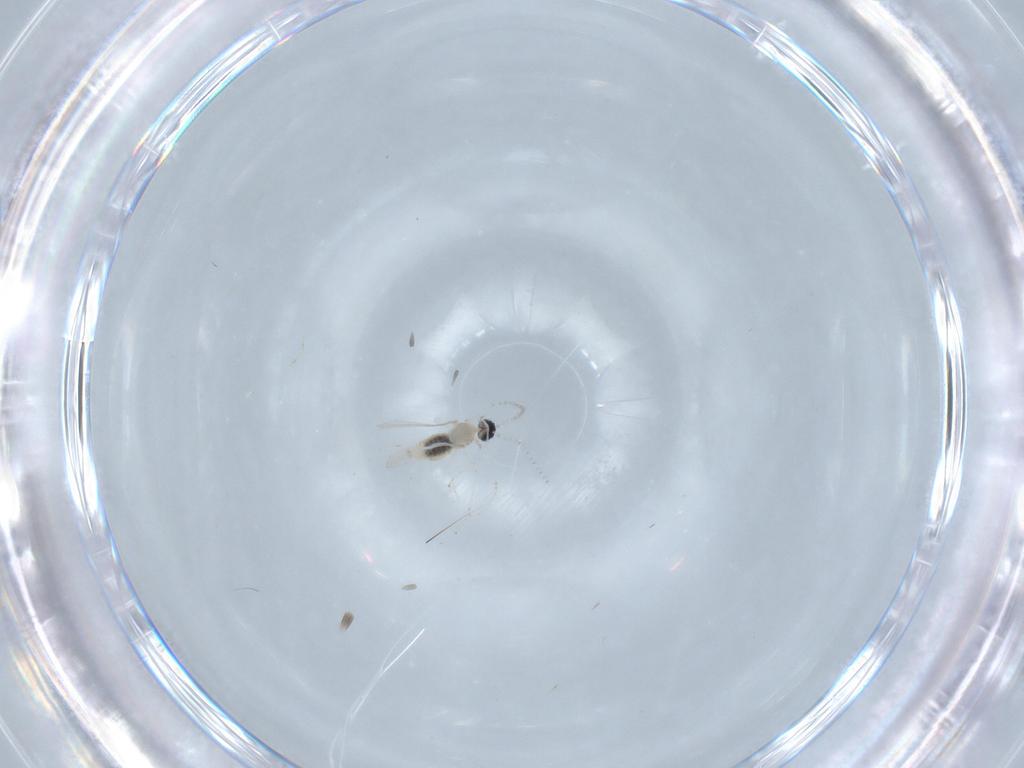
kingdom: Animalia
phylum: Arthropoda
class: Insecta
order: Diptera
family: Cecidomyiidae
